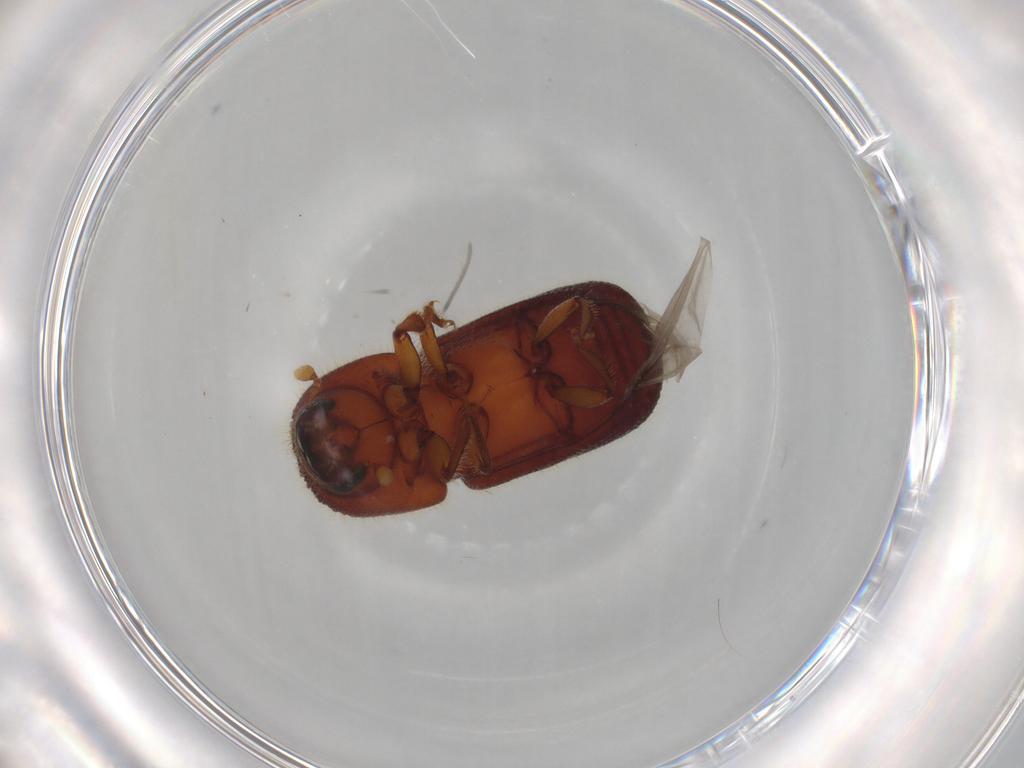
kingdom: Animalia
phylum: Arthropoda
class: Insecta
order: Coleoptera
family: Curculionidae
